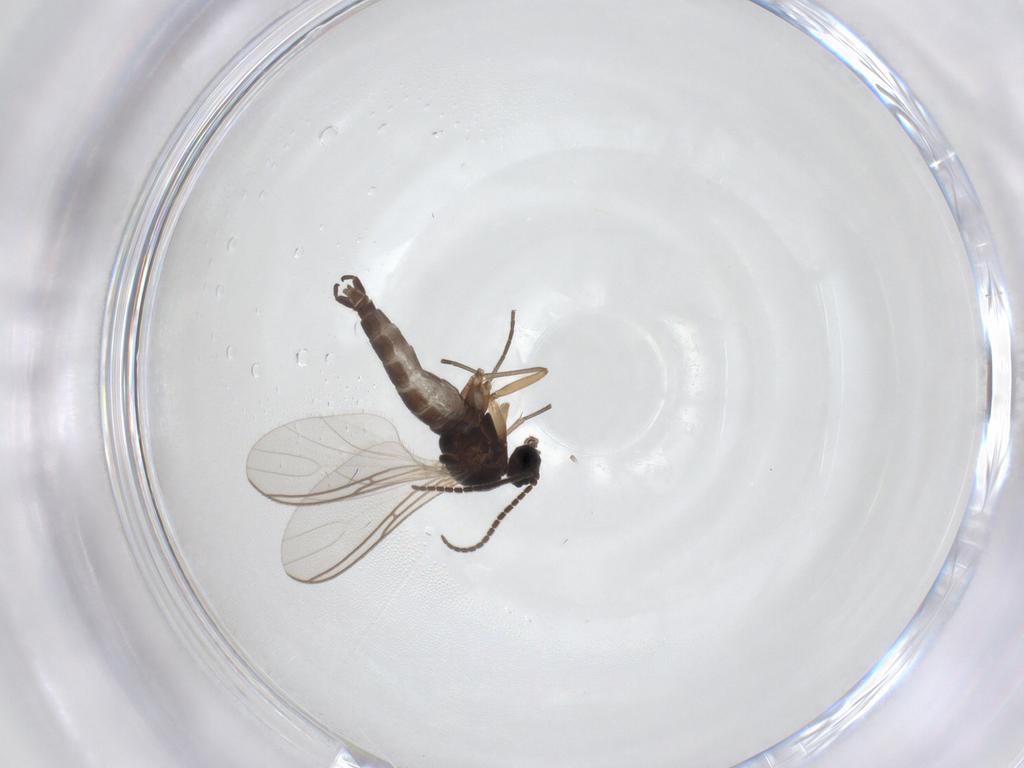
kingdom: Animalia
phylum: Arthropoda
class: Insecta
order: Diptera
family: Sciaridae
